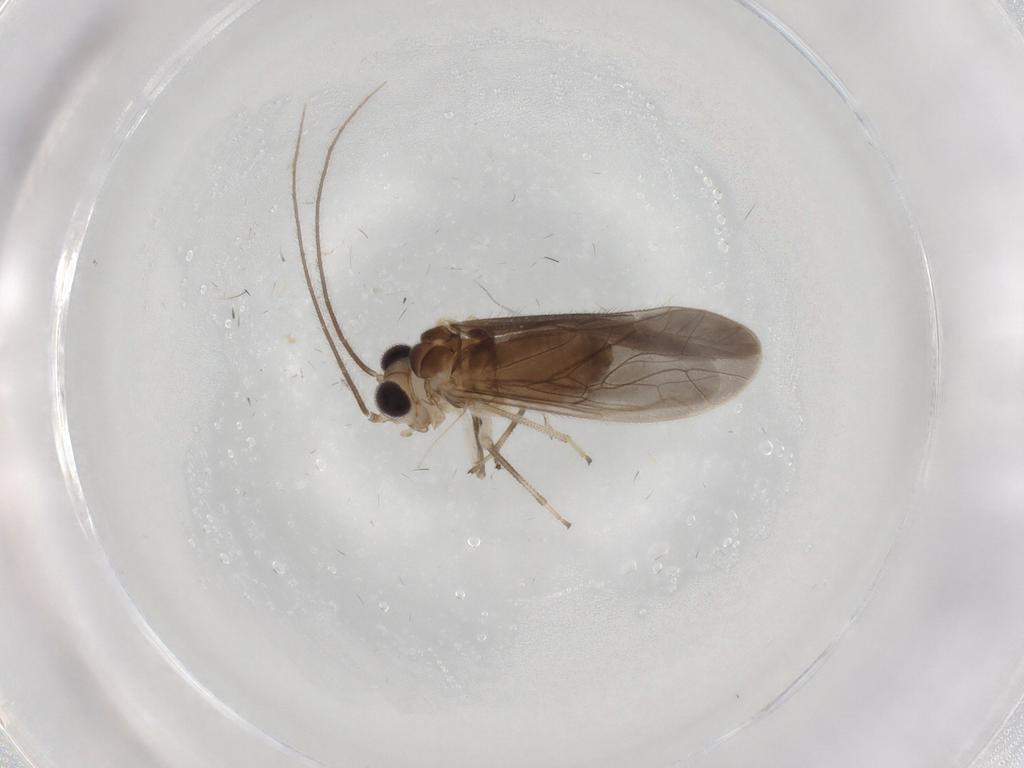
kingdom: Animalia
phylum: Arthropoda
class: Insecta
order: Psocodea
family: Caeciliusidae
